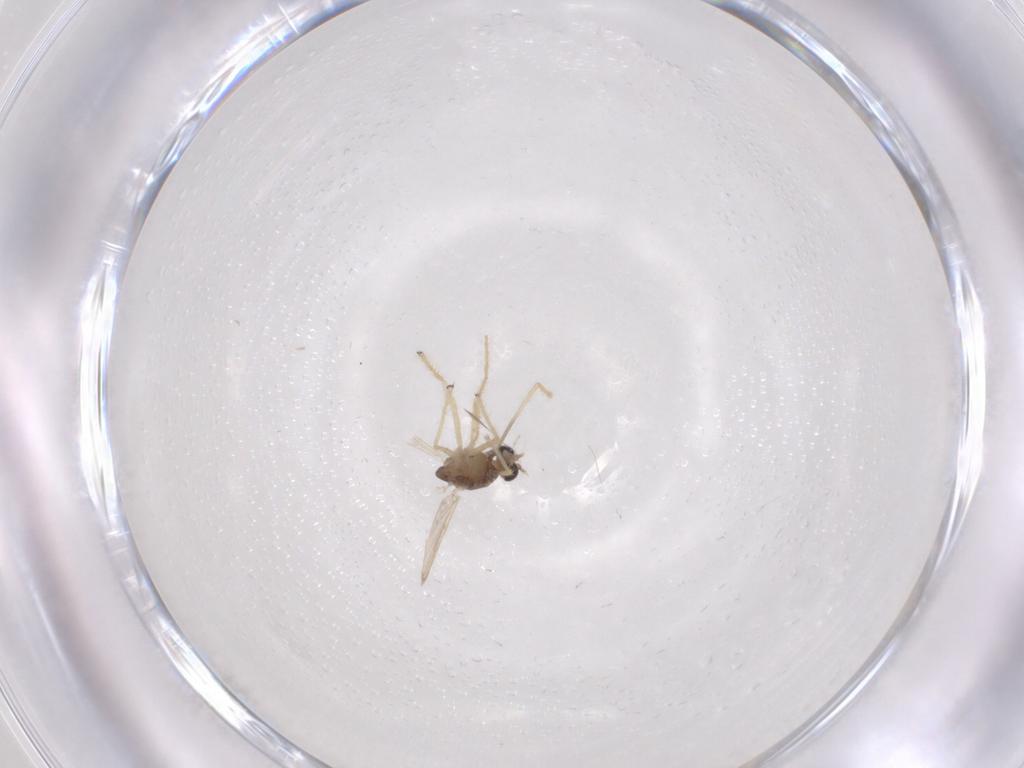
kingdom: Animalia
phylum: Arthropoda
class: Insecta
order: Diptera
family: Chironomidae
